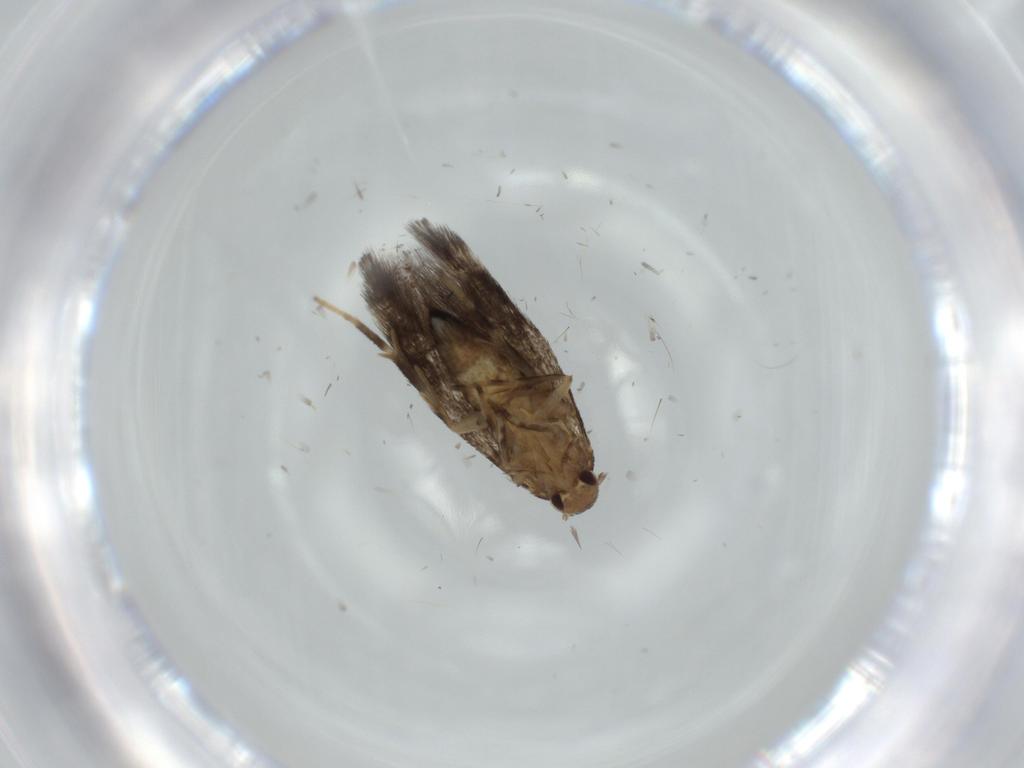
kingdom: Animalia
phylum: Arthropoda
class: Insecta
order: Lepidoptera
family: Cosmopterigidae
